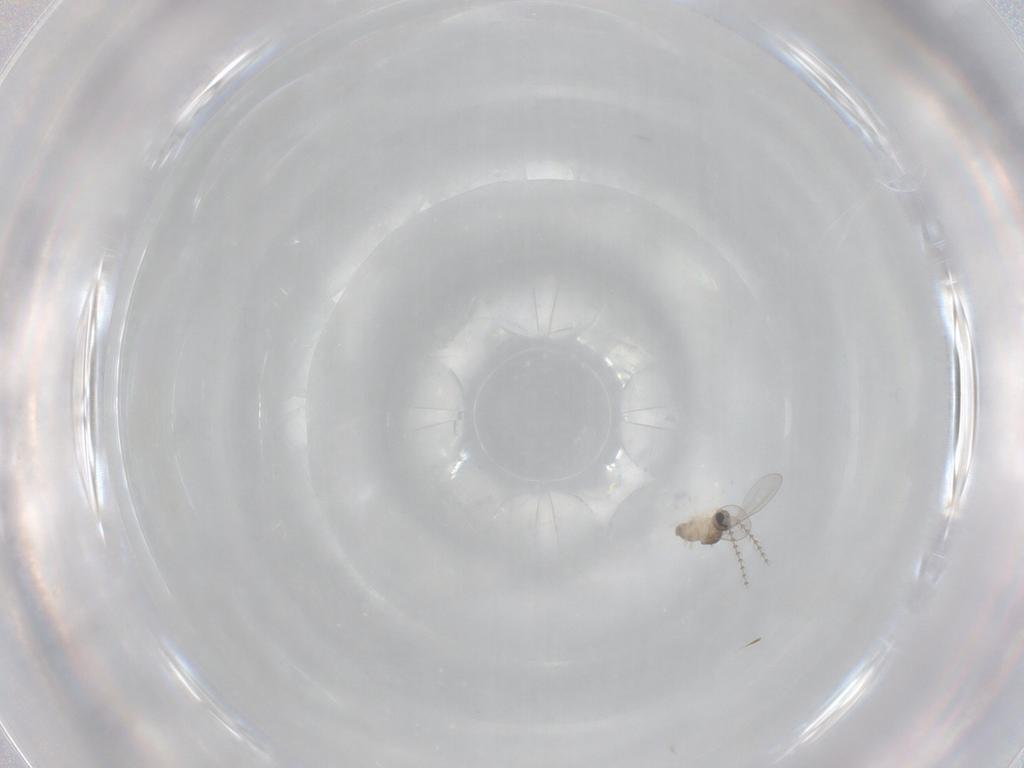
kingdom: Animalia
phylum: Arthropoda
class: Insecta
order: Diptera
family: Cecidomyiidae
